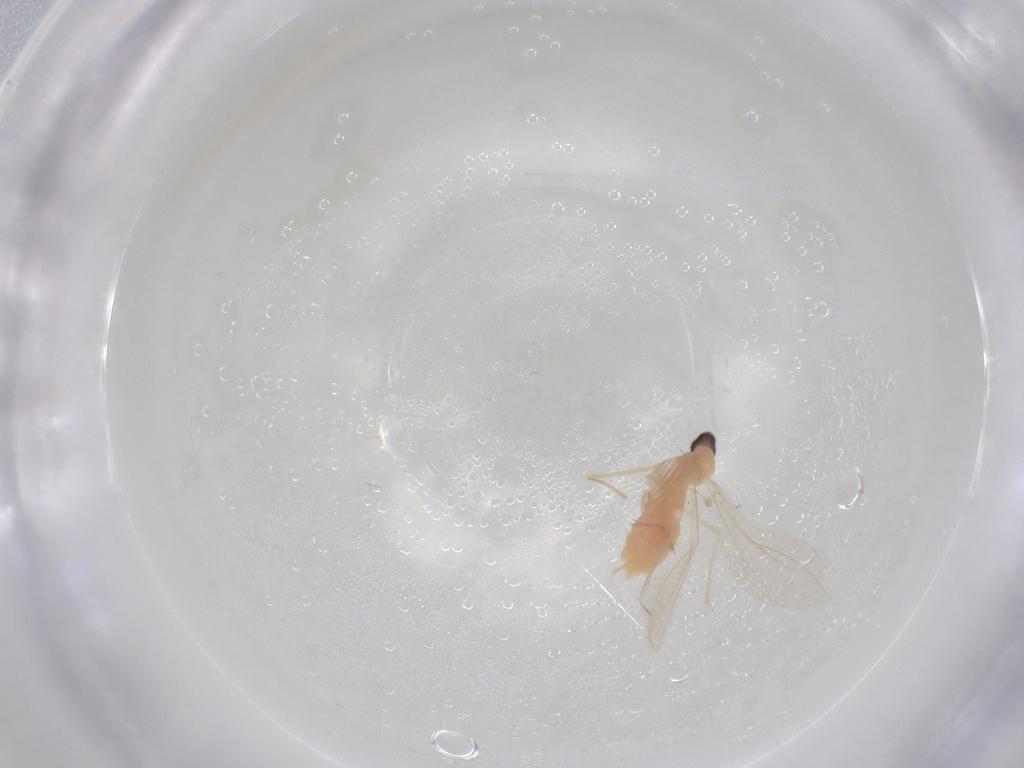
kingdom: Animalia
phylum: Arthropoda
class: Insecta
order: Diptera
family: Cecidomyiidae
